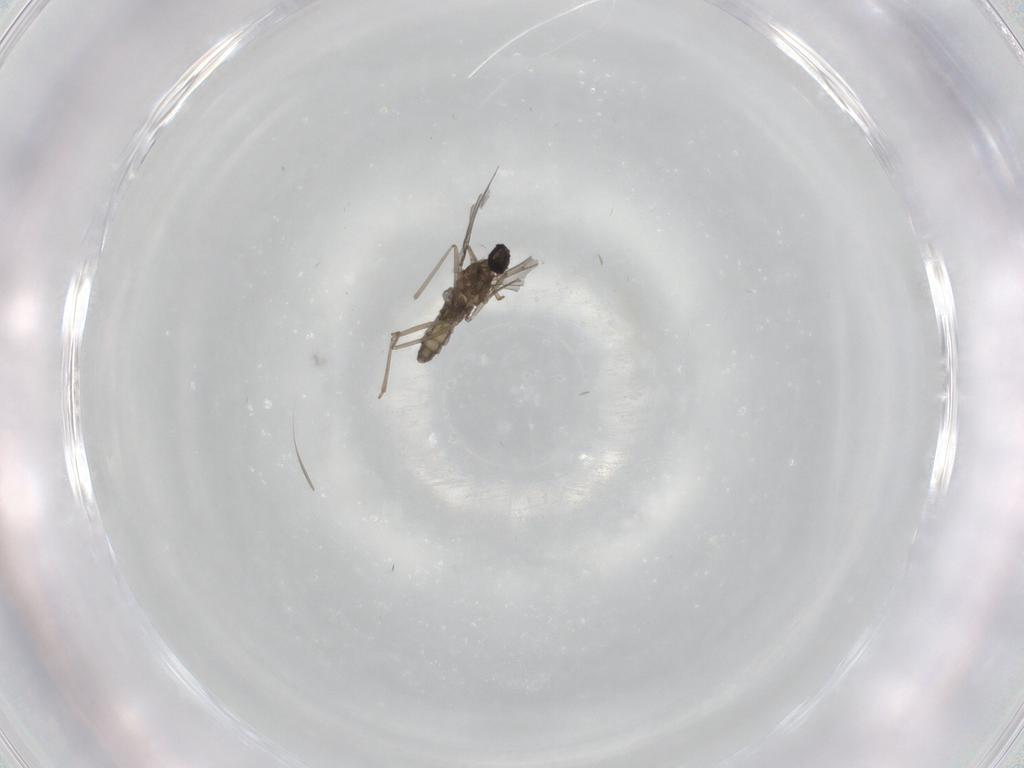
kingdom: Animalia
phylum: Arthropoda
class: Insecta
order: Diptera
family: Cecidomyiidae
